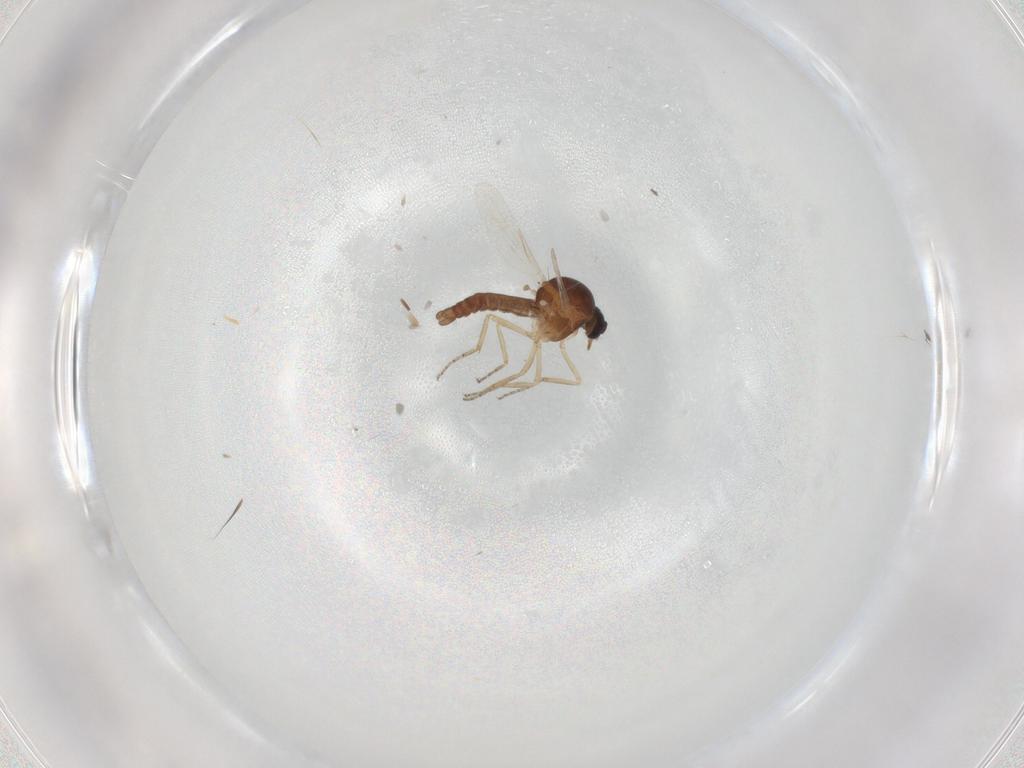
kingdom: Animalia
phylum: Arthropoda
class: Insecta
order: Diptera
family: Ceratopogonidae
